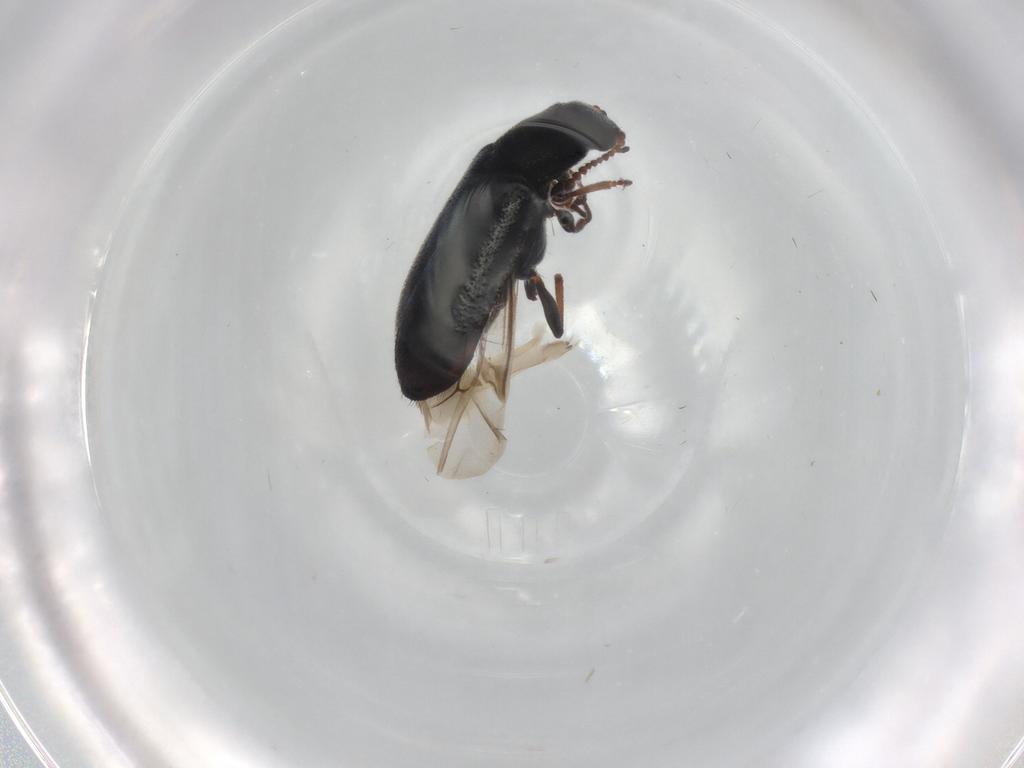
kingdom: Animalia
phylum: Arthropoda
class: Insecta
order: Coleoptera
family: Melyridae
